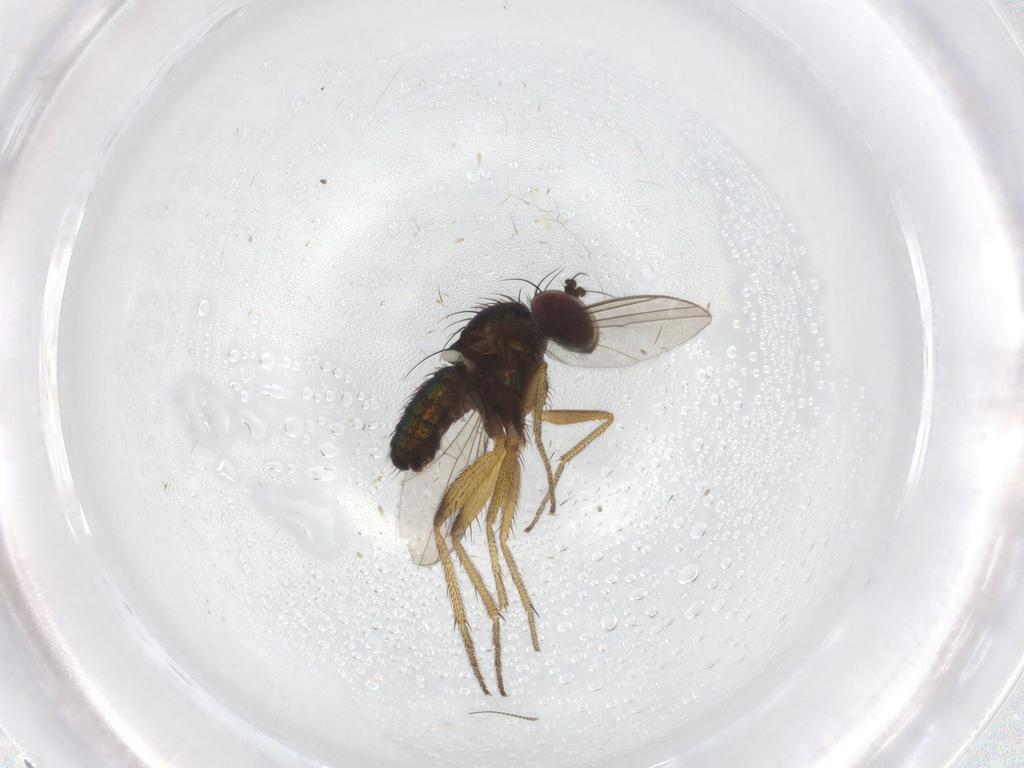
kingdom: Animalia
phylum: Arthropoda
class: Insecta
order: Diptera
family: Dolichopodidae
